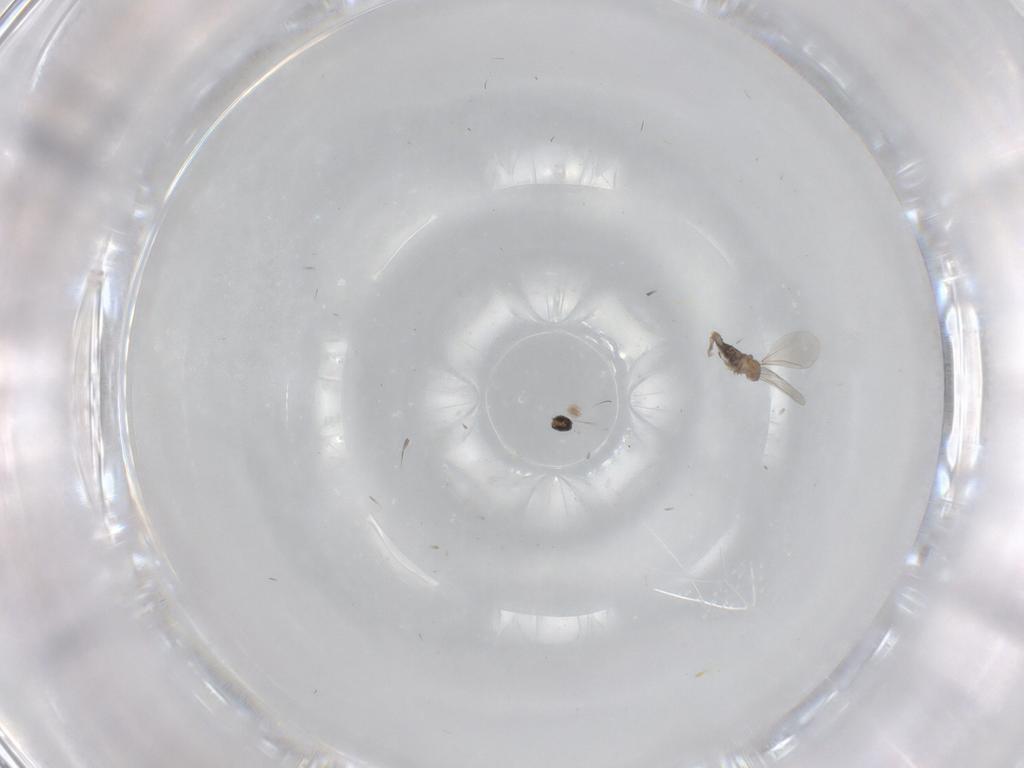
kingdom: Animalia
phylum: Arthropoda
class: Insecta
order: Diptera
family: Cecidomyiidae
